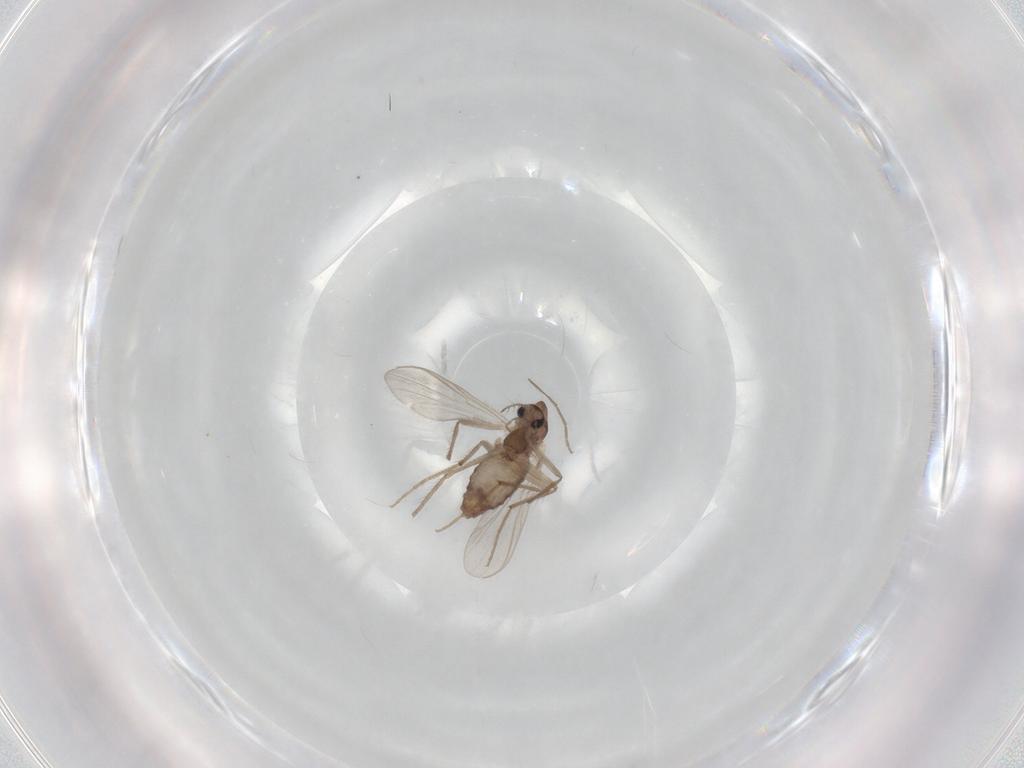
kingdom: Animalia
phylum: Arthropoda
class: Insecta
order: Diptera
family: Chironomidae
